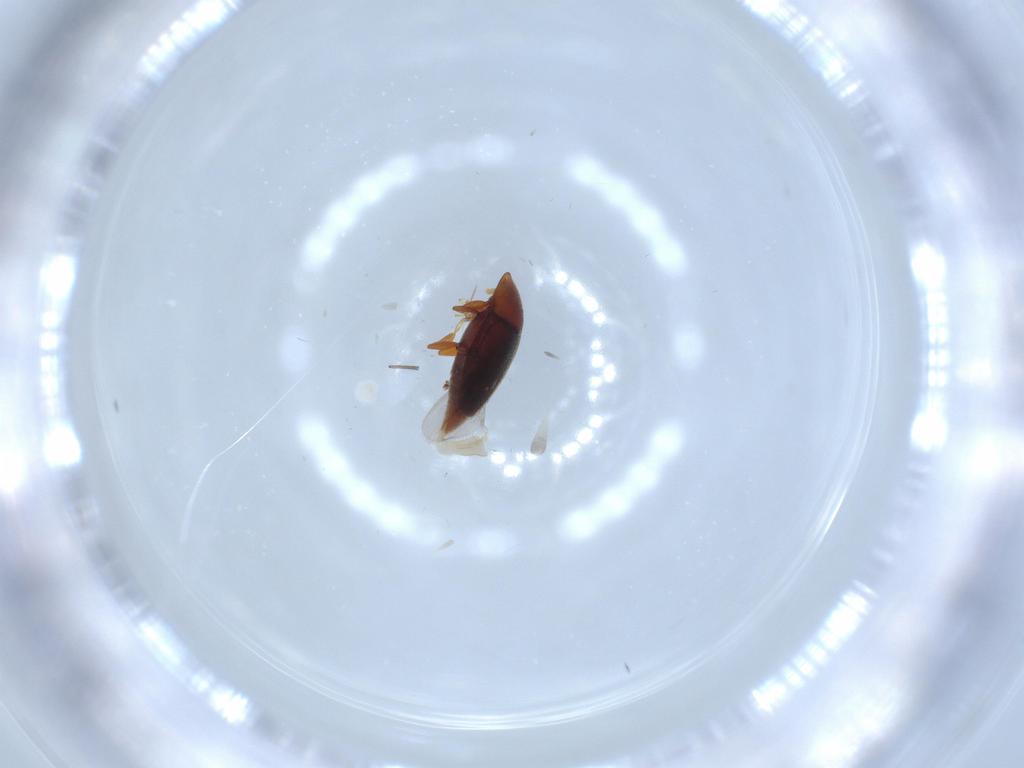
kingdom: Animalia
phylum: Arthropoda
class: Insecta
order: Coleoptera
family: Corylophidae
